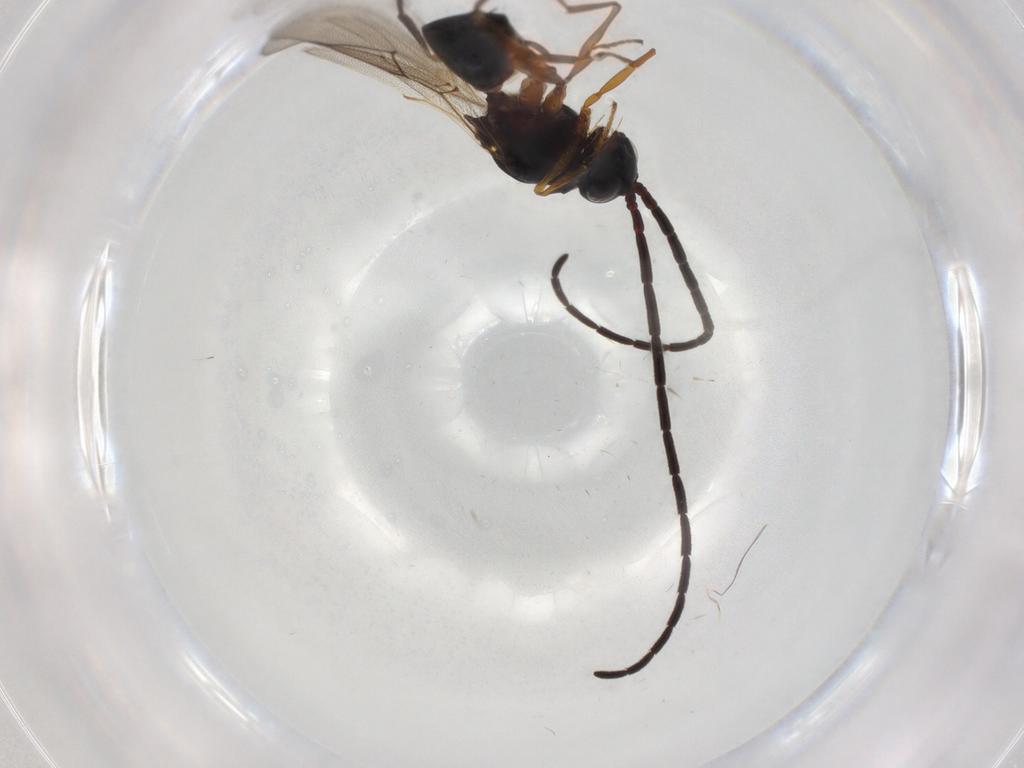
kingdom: Animalia
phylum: Arthropoda
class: Insecta
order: Hymenoptera
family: Figitidae
